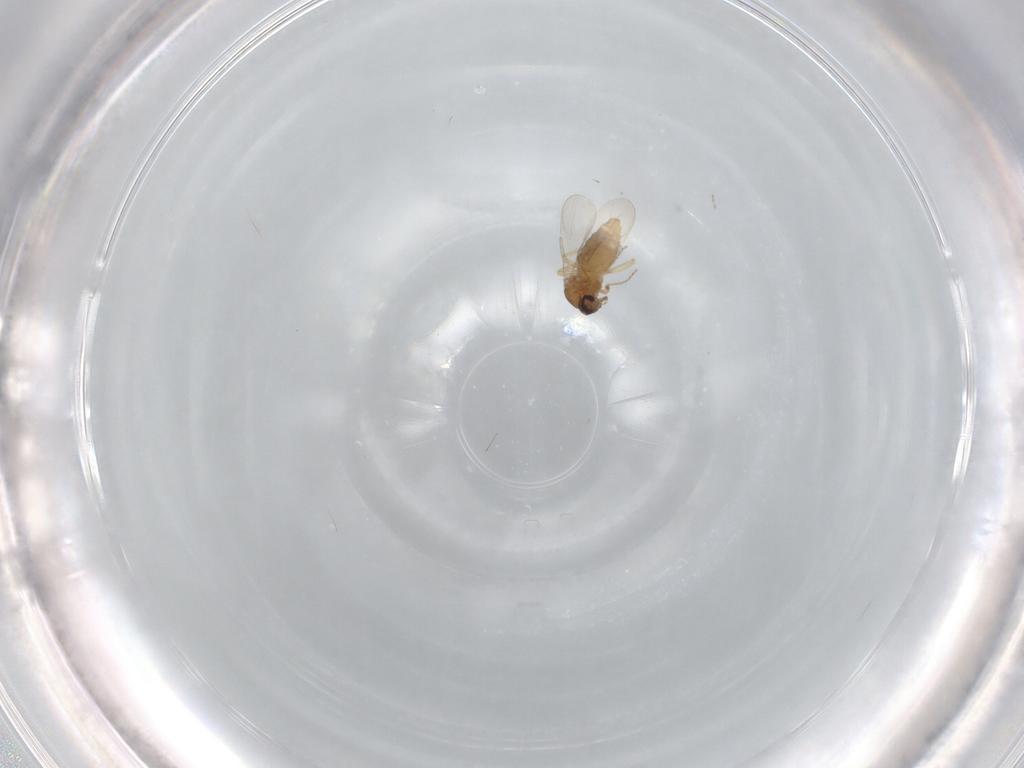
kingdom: Animalia
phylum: Arthropoda
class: Insecta
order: Diptera
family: Ceratopogonidae
